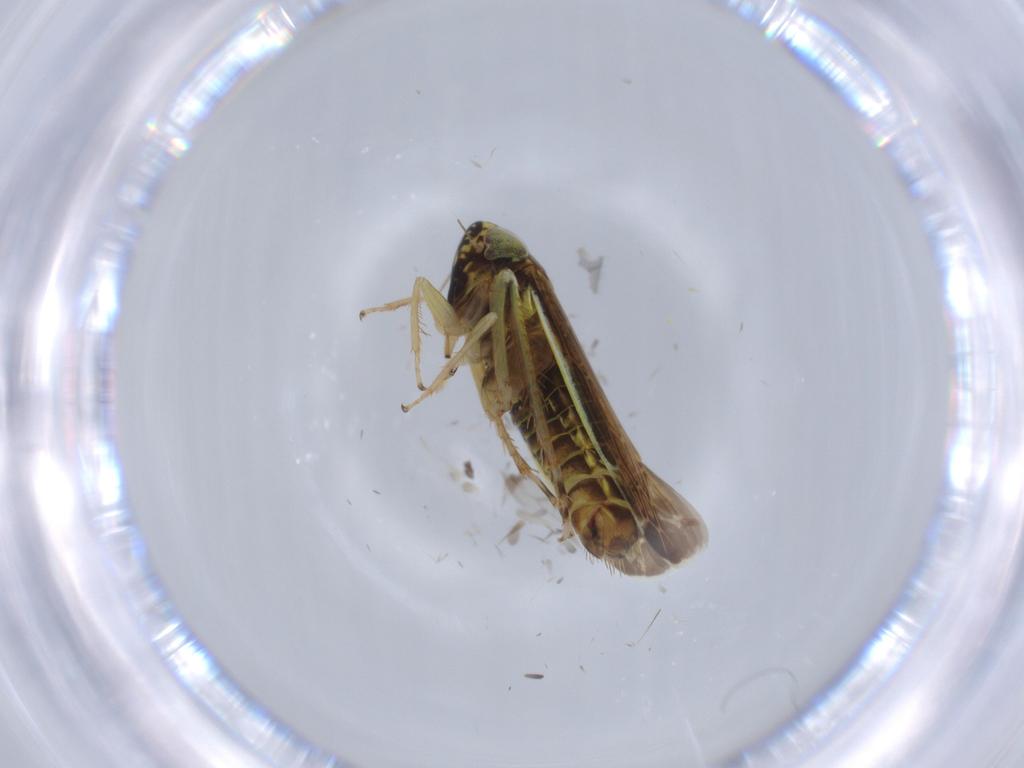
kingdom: Animalia
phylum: Arthropoda
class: Insecta
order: Hemiptera
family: Cicadellidae
